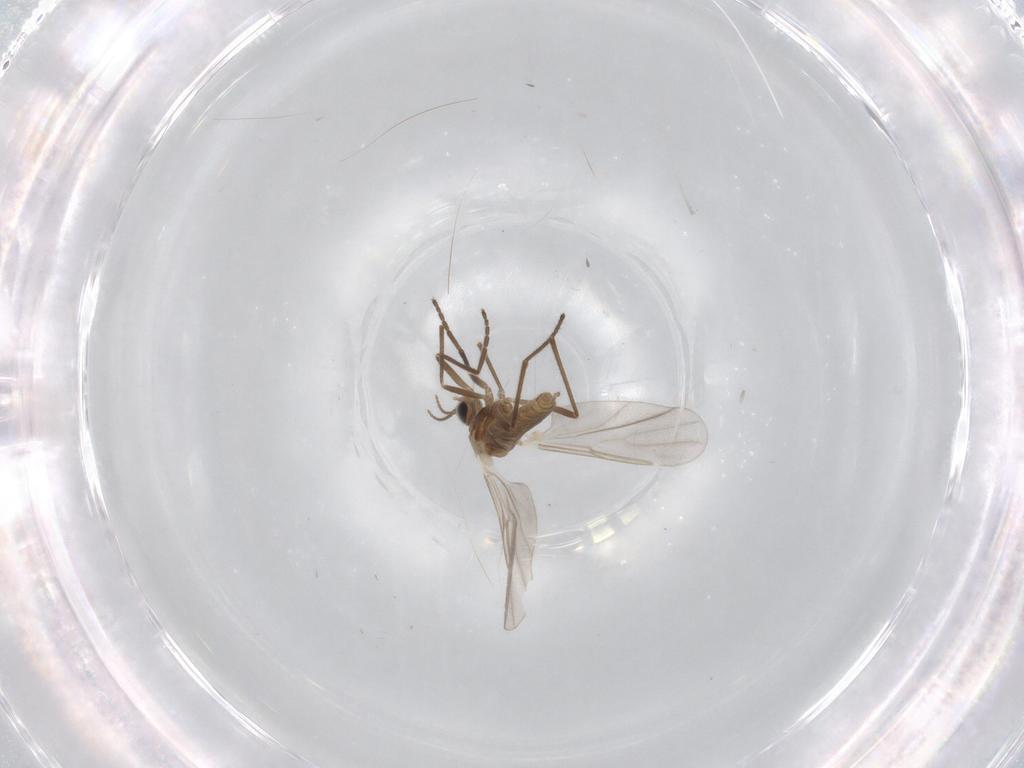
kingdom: Animalia
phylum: Arthropoda
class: Insecta
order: Diptera
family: Cecidomyiidae
